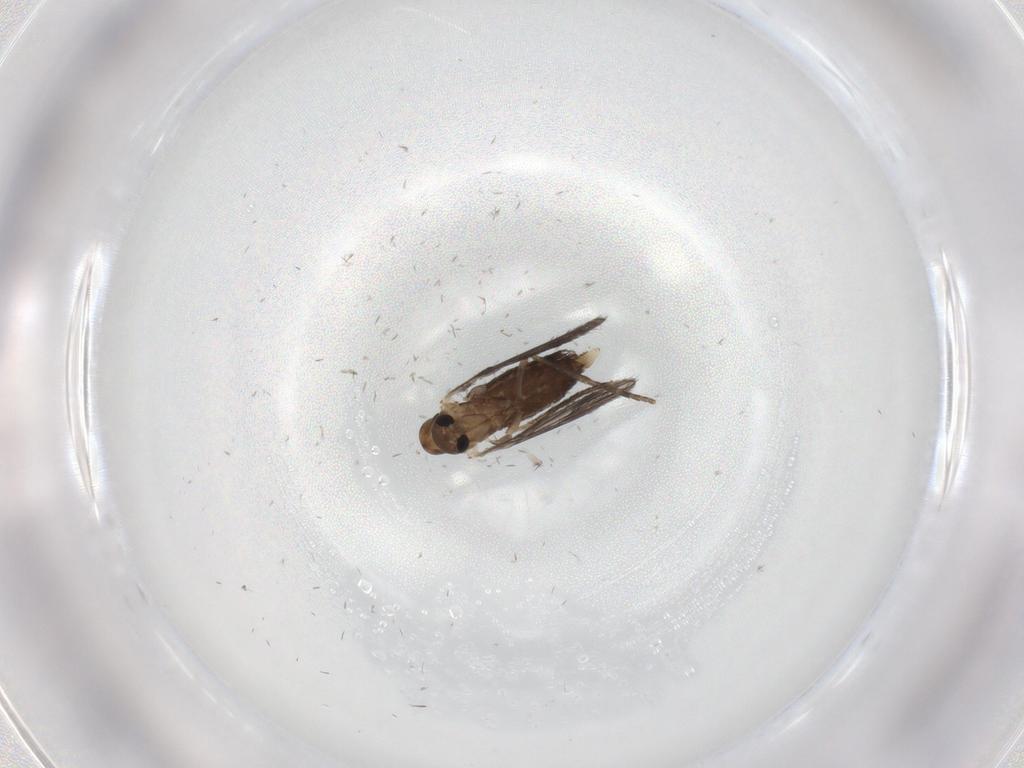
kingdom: Animalia
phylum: Arthropoda
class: Insecta
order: Diptera
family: Psychodidae
